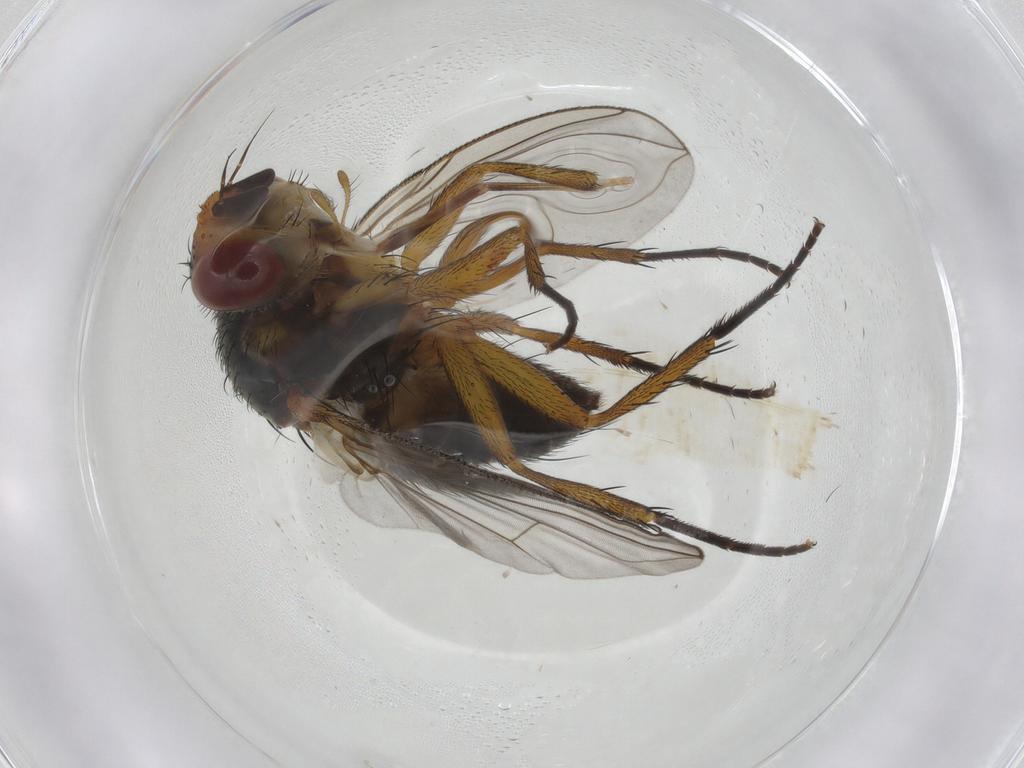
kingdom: Animalia
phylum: Arthropoda
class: Insecta
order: Diptera
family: Tachinidae
